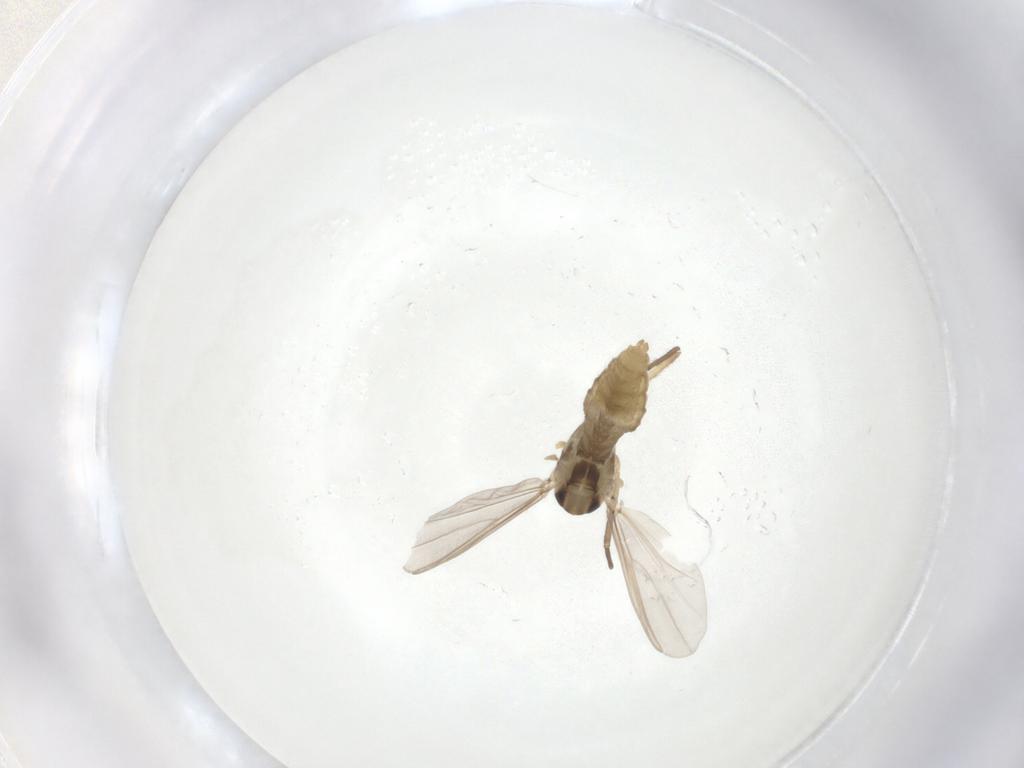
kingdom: Animalia
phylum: Arthropoda
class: Insecta
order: Diptera
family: Chironomidae
